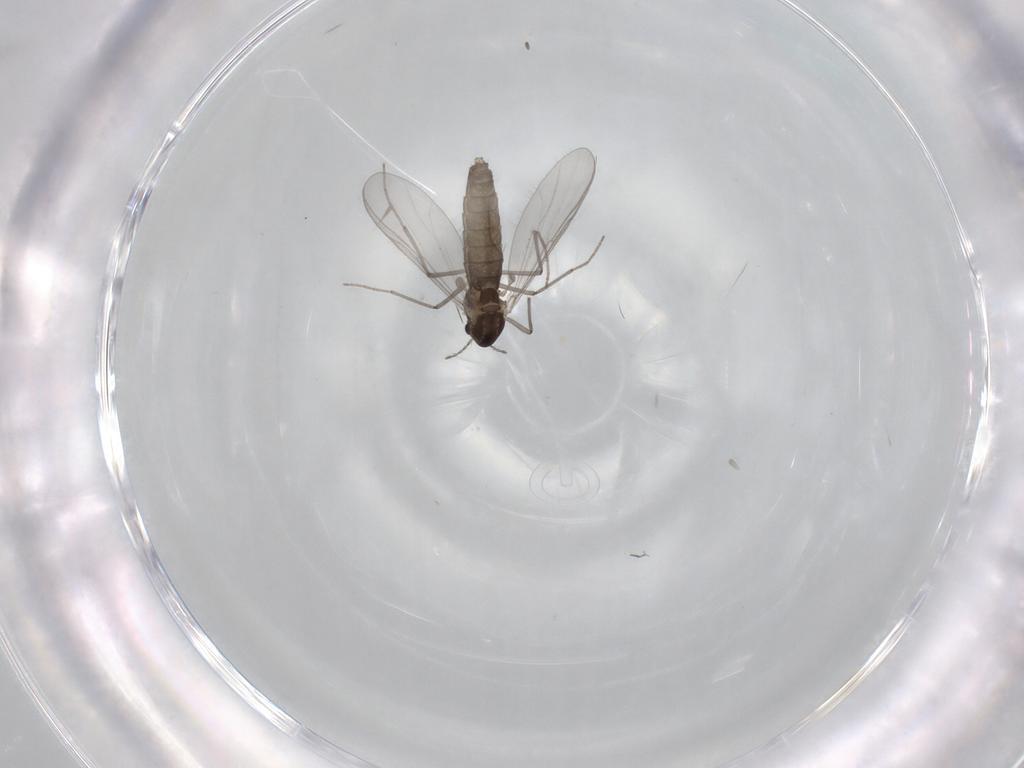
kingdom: Animalia
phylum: Arthropoda
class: Insecta
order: Diptera
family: Chironomidae
